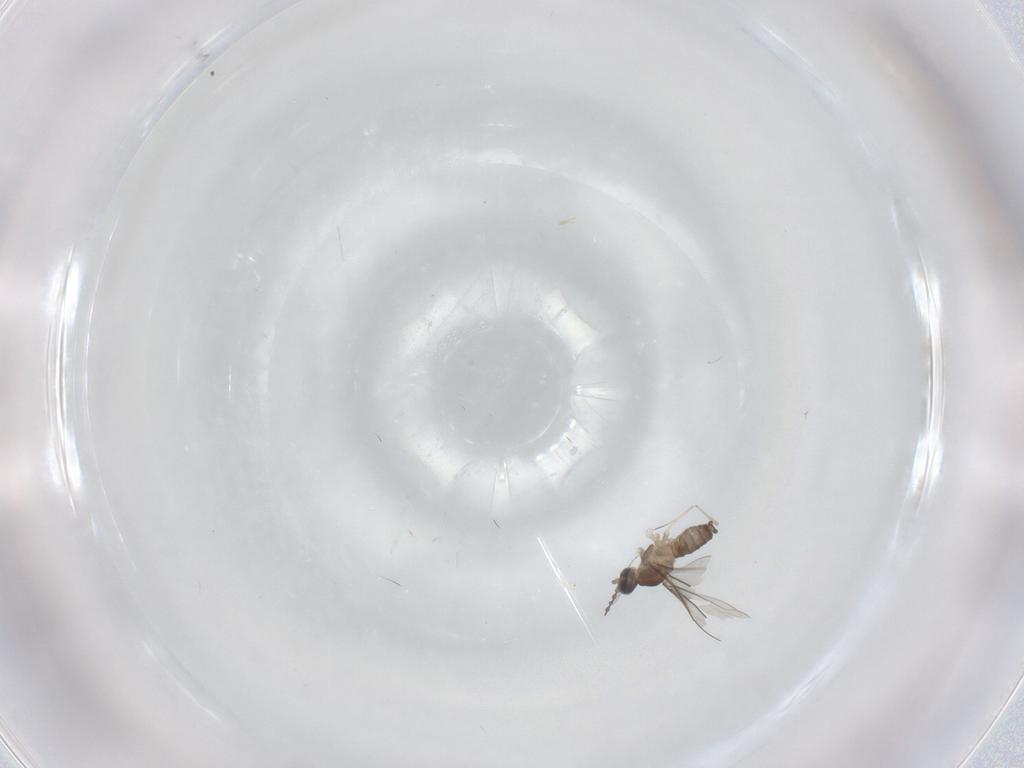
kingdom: Animalia
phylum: Arthropoda
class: Insecta
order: Diptera
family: Sciaridae
